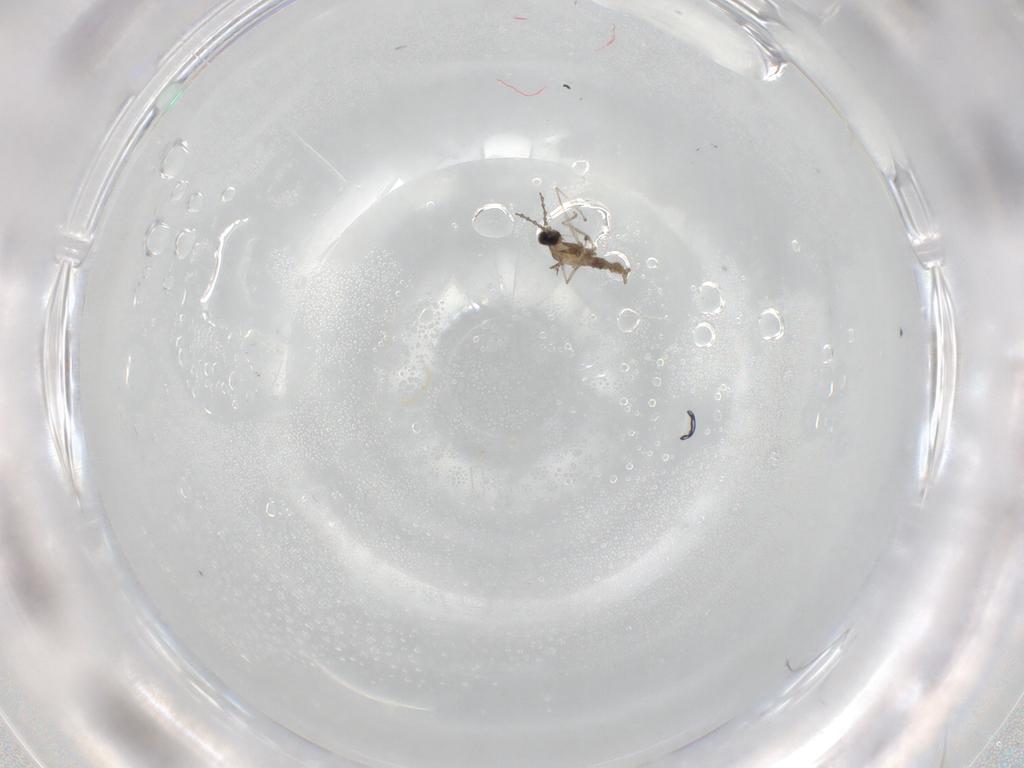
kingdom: Animalia
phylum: Arthropoda
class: Insecta
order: Diptera
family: Cecidomyiidae
